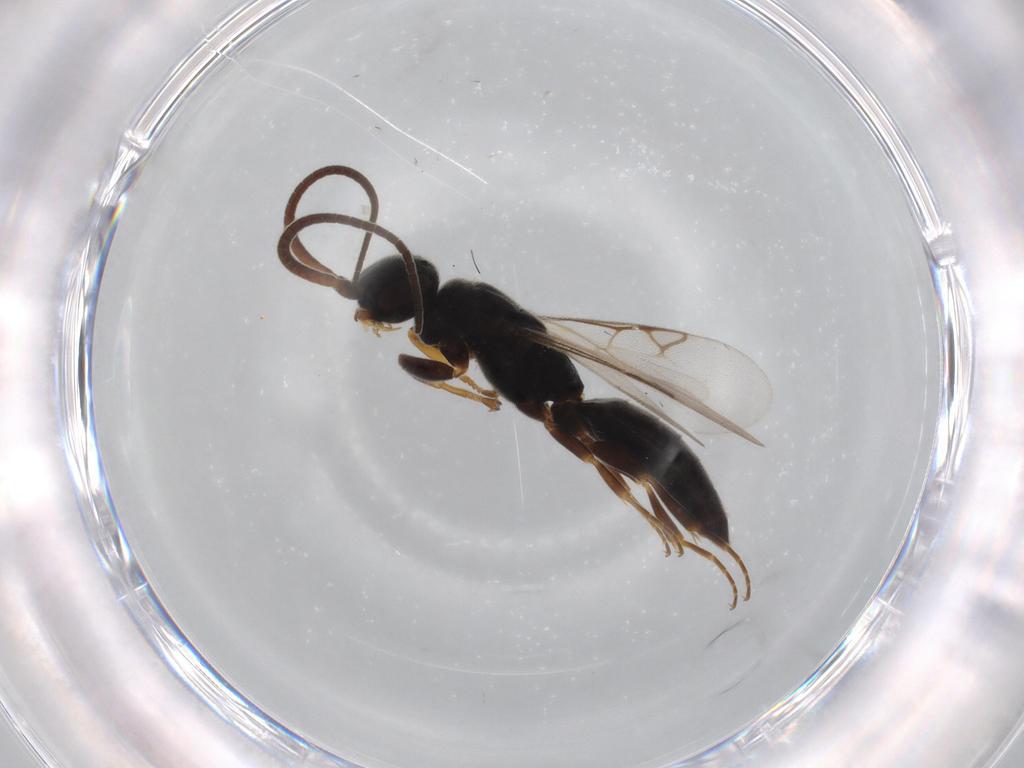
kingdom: Animalia
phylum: Arthropoda
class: Insecta
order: Hymenoptera
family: Sclerogibbidae
